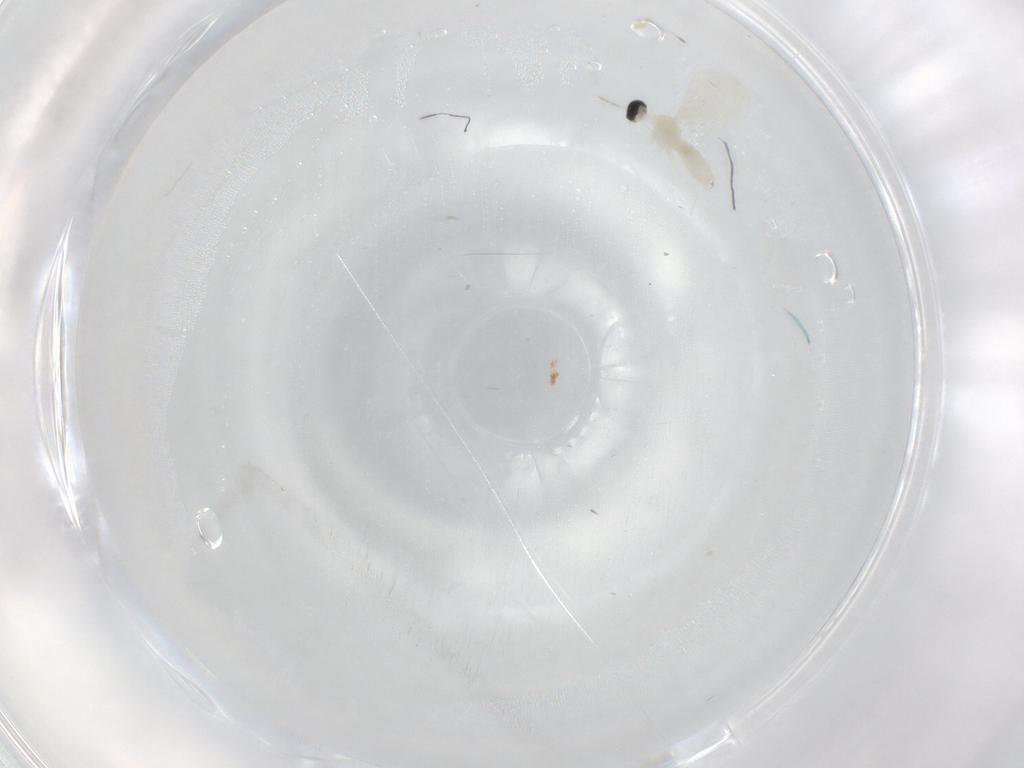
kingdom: Animalia
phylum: Arthropoda
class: Insecta
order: Diptera
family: Cecidomyiidae
